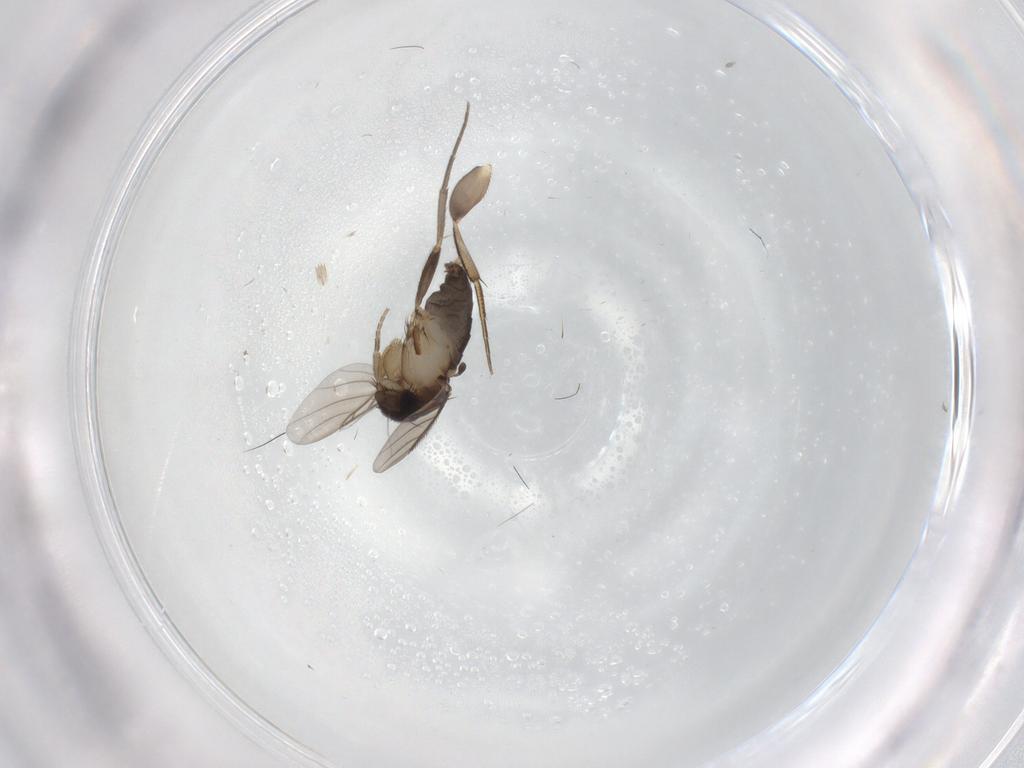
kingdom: Animalia
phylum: Arthropoda
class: Insecta
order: Diptera
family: Phoridae
